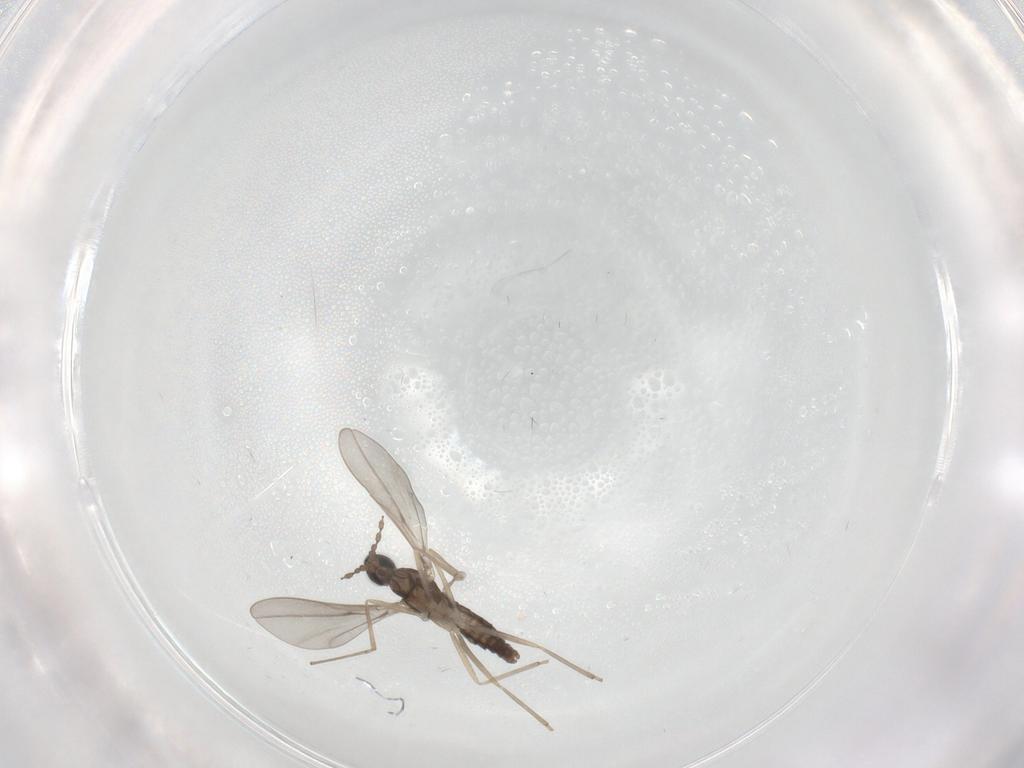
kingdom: Animalia
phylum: Arthropoda
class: Insecta
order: Diptera
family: Cecidomyiidae
